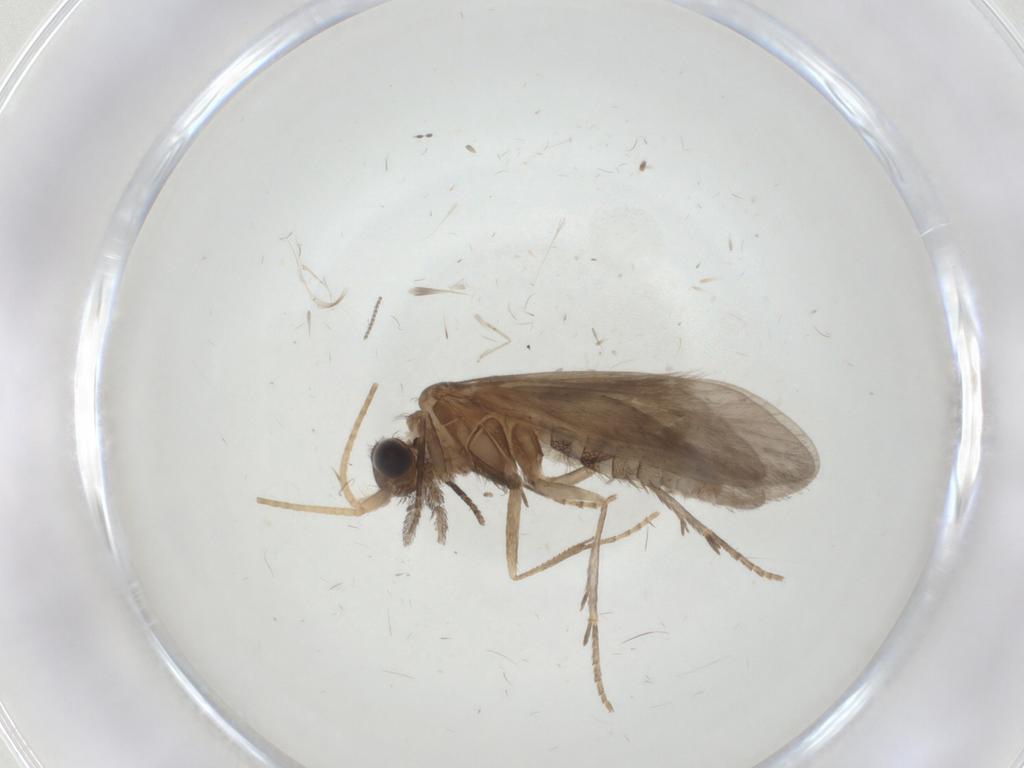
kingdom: Animalia
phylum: Arthropoda
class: Insecta
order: Trichoptera
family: Helicopsychidae
